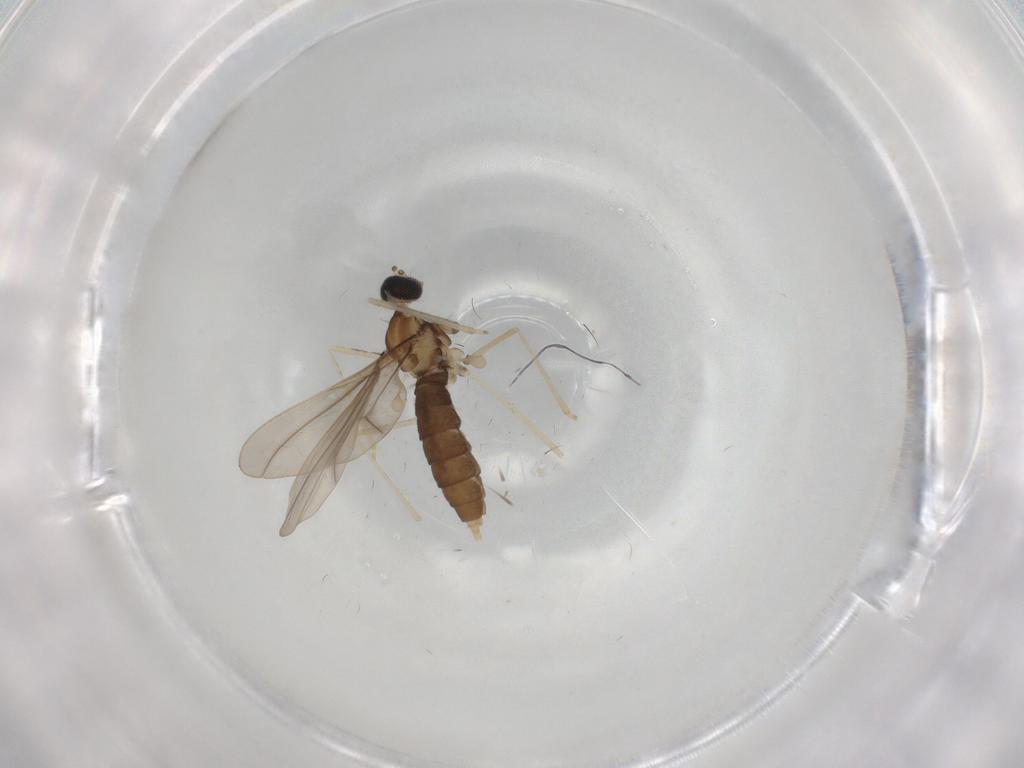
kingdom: Animalia
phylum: Arthropoda
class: Insecta
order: Diptera
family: Cecidomyiidae
